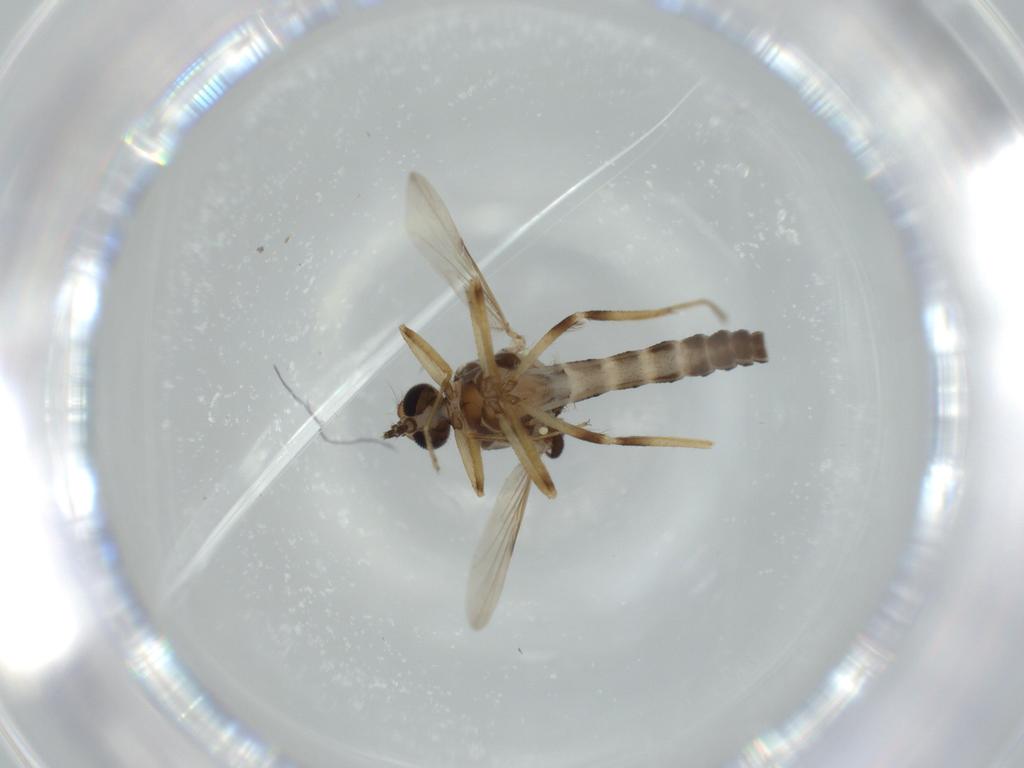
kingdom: Animalia
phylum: Arthropoda
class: Insecta
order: Diptera
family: Ceratopogonidae
